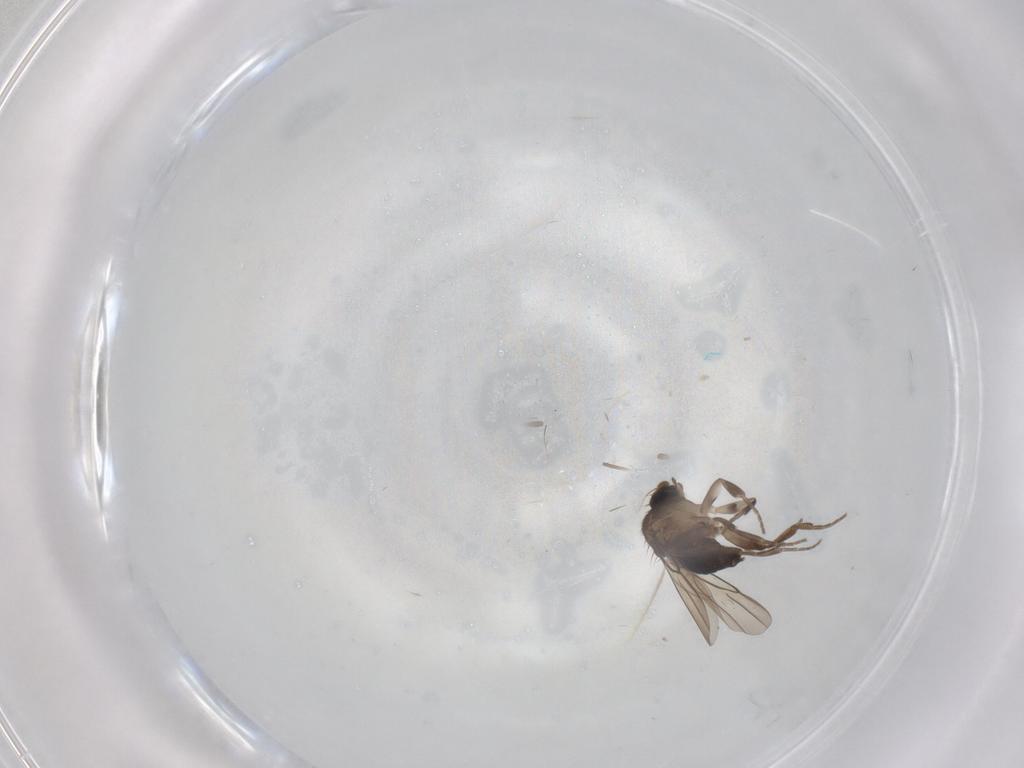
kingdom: Animalia
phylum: Arthropoda
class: Insecta
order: Diptera
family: Phoridae
